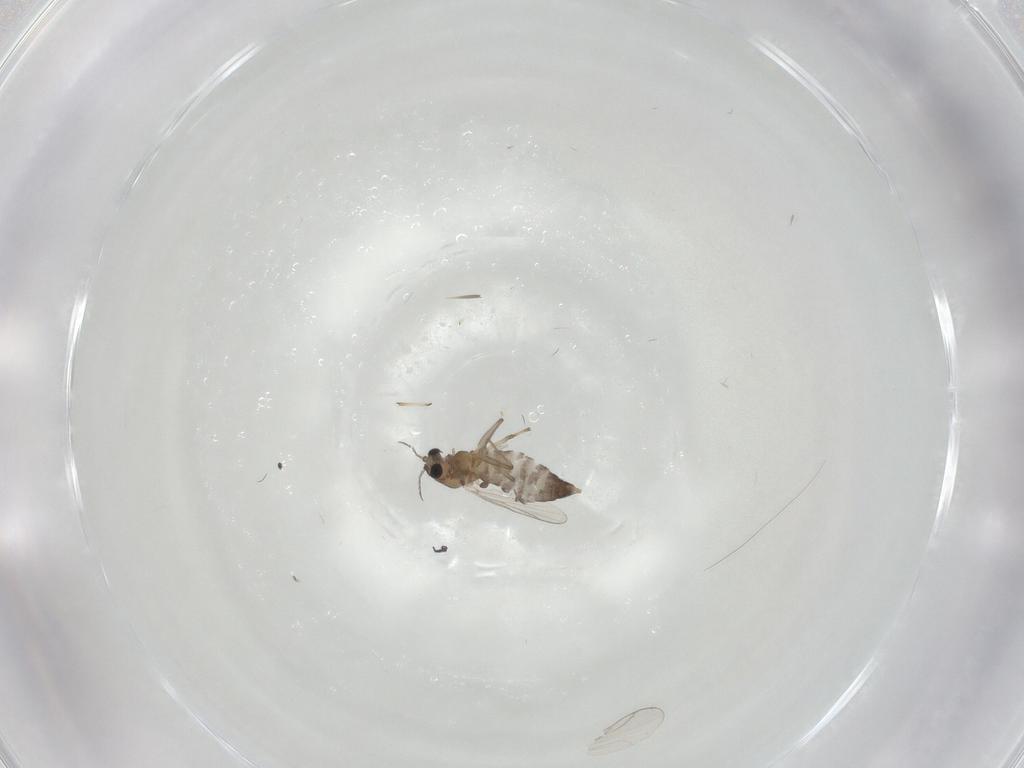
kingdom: Animalia
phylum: Arthropoda
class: Insecta
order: Diptera
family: Chironomidae
